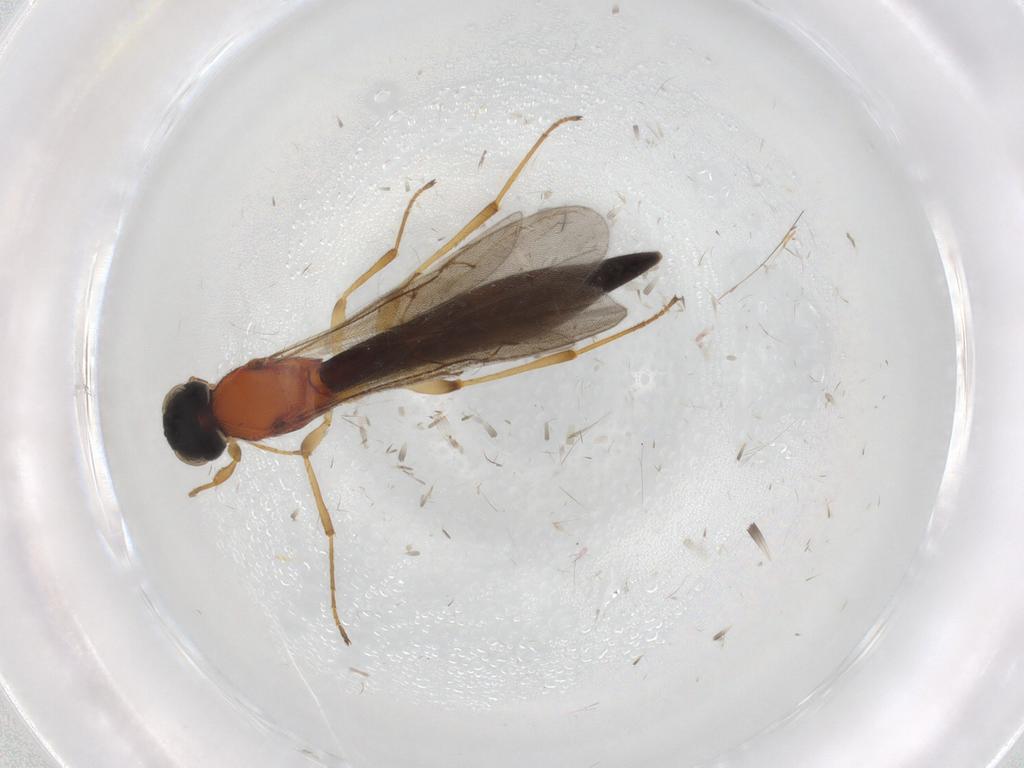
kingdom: Animalia
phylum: Arthropoda
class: Insecta
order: Hymenoptera
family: Scelionidae
